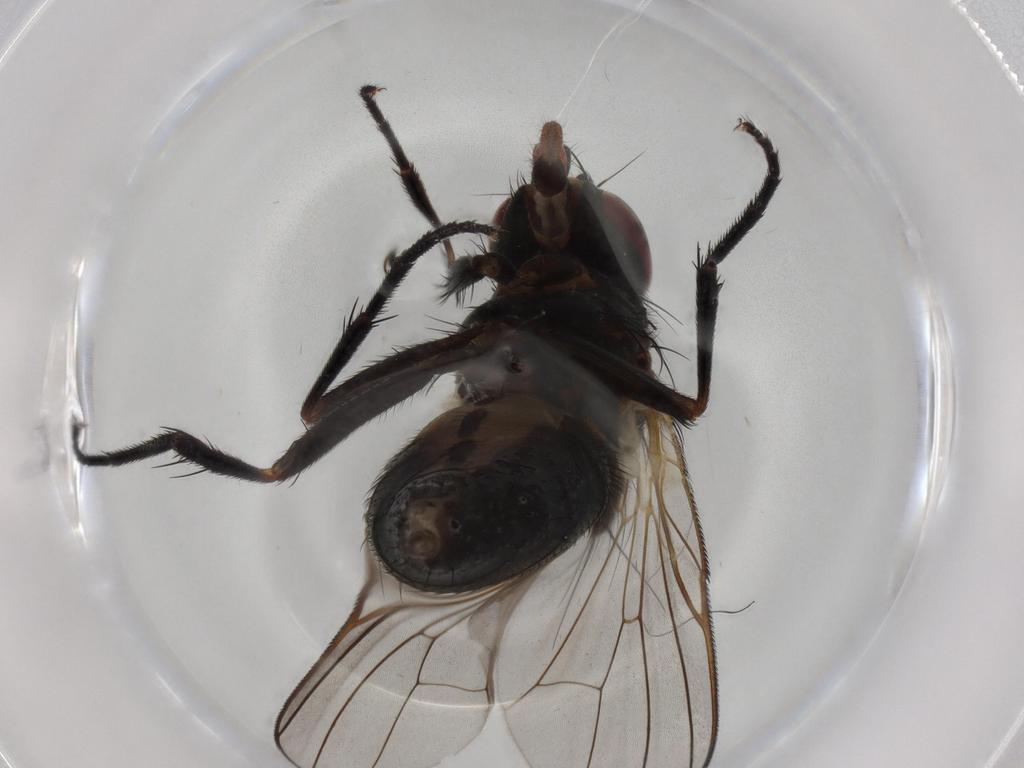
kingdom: Animalia
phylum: Arthropoda
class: Insecta
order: Diptera
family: Fannia
